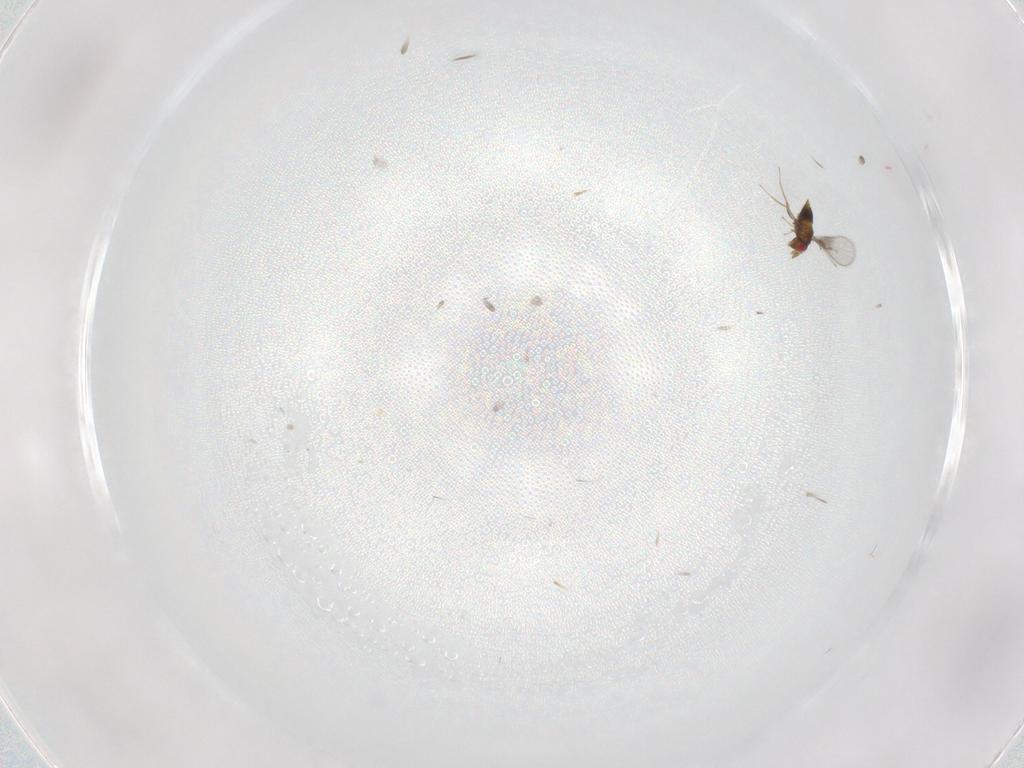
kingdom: Animalia
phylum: Arthropoda
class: Insecta
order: Hymenoptera
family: Trichogrammatidae
